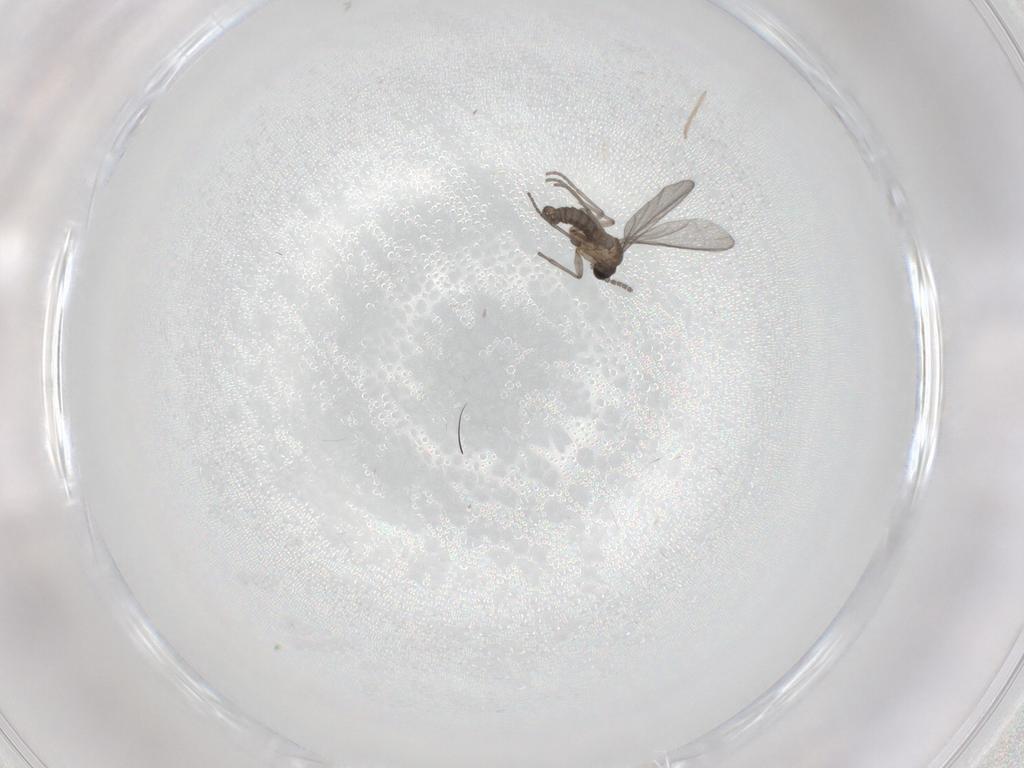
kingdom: Animalia
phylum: Arthropoda
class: Insecta
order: Diptera
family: Sciaridae
